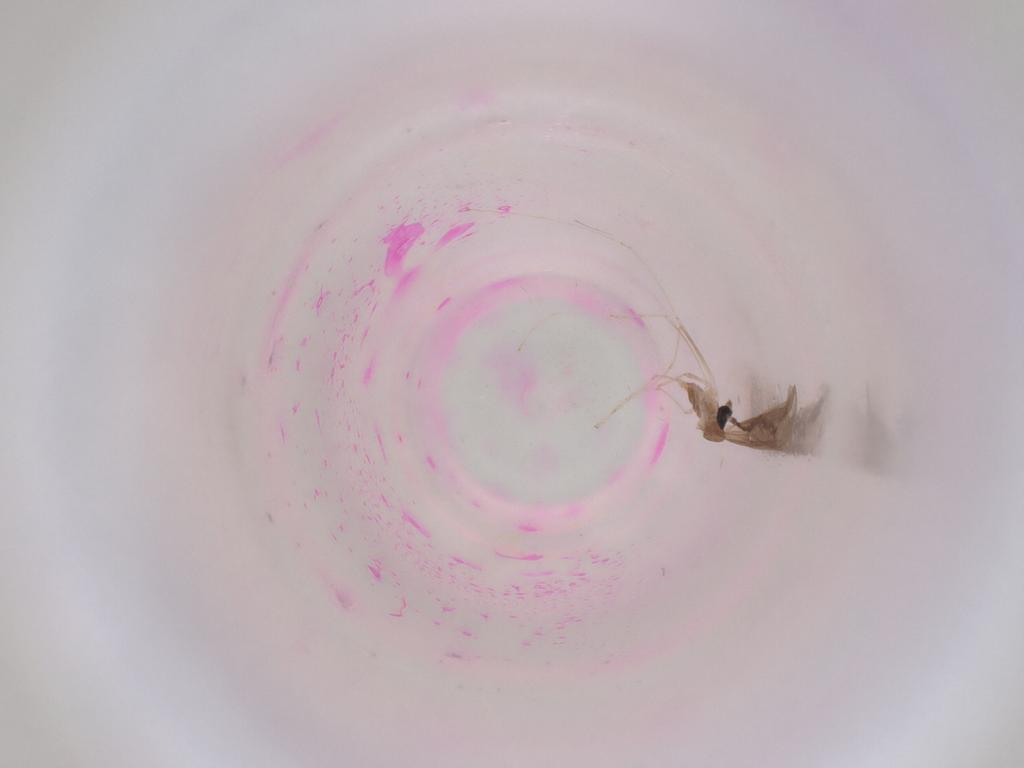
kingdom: Animalia
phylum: Arthropoda
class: Insecta
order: Diptera
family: Cecidomyiidae
